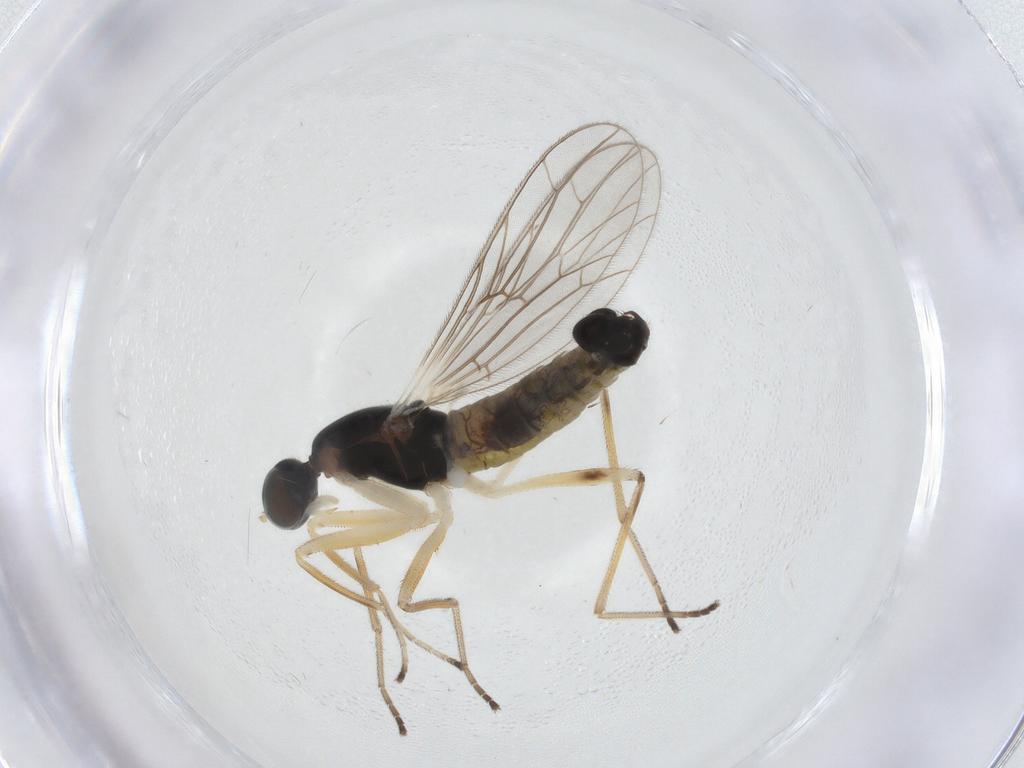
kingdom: Animalia
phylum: Arthropoda
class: Insecta
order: Diptera
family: Empididae
